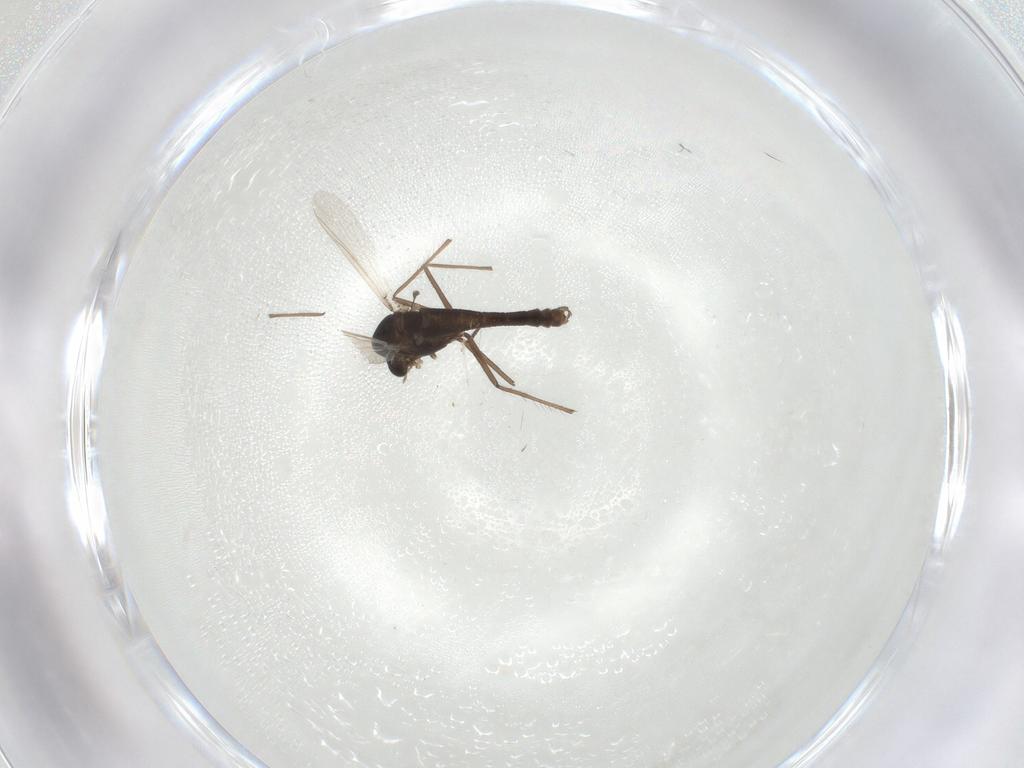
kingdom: Animalia
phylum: Arthropoda
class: Insecta
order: Diptera
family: Chironomidae
